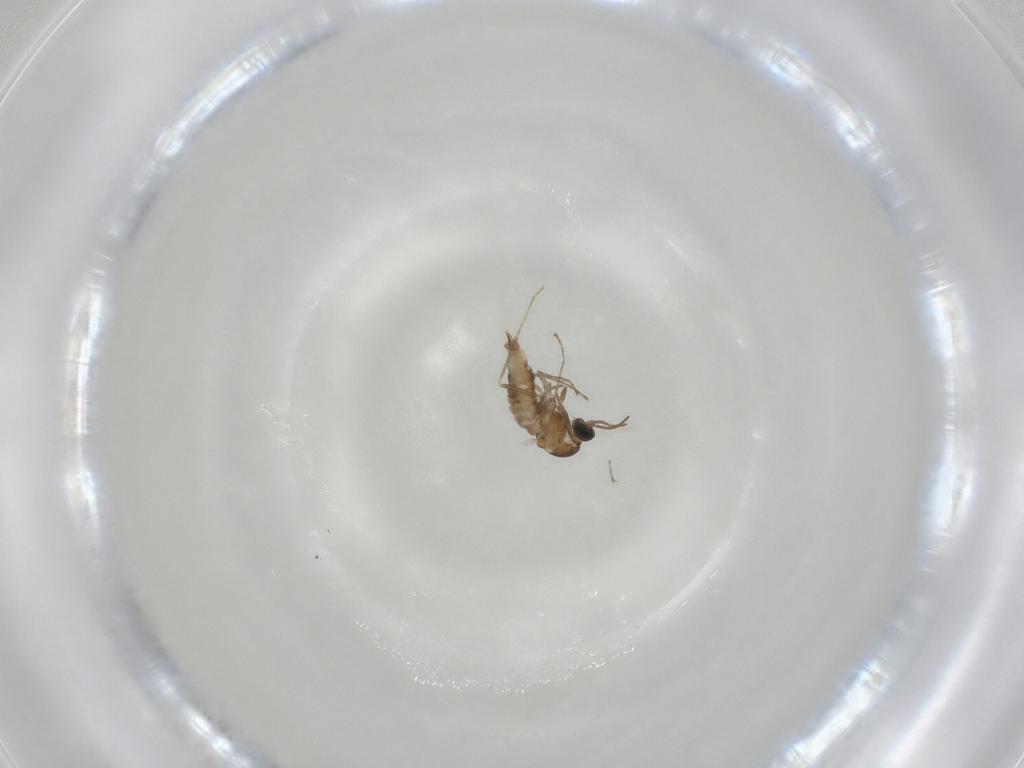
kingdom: Animalia
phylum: Arthropoda
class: Insecta
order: Diptera
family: Cecidomyiidae
